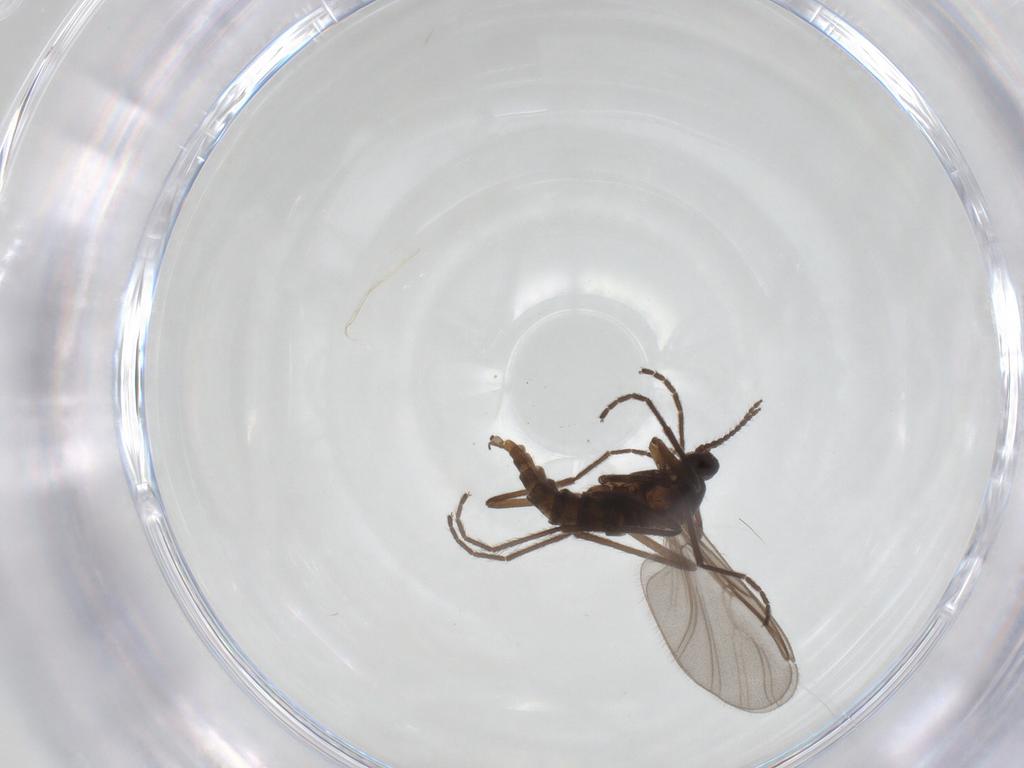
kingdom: Animalia
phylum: Arthropoda
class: Insecta
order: Diptera
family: Cecidomyiidae
